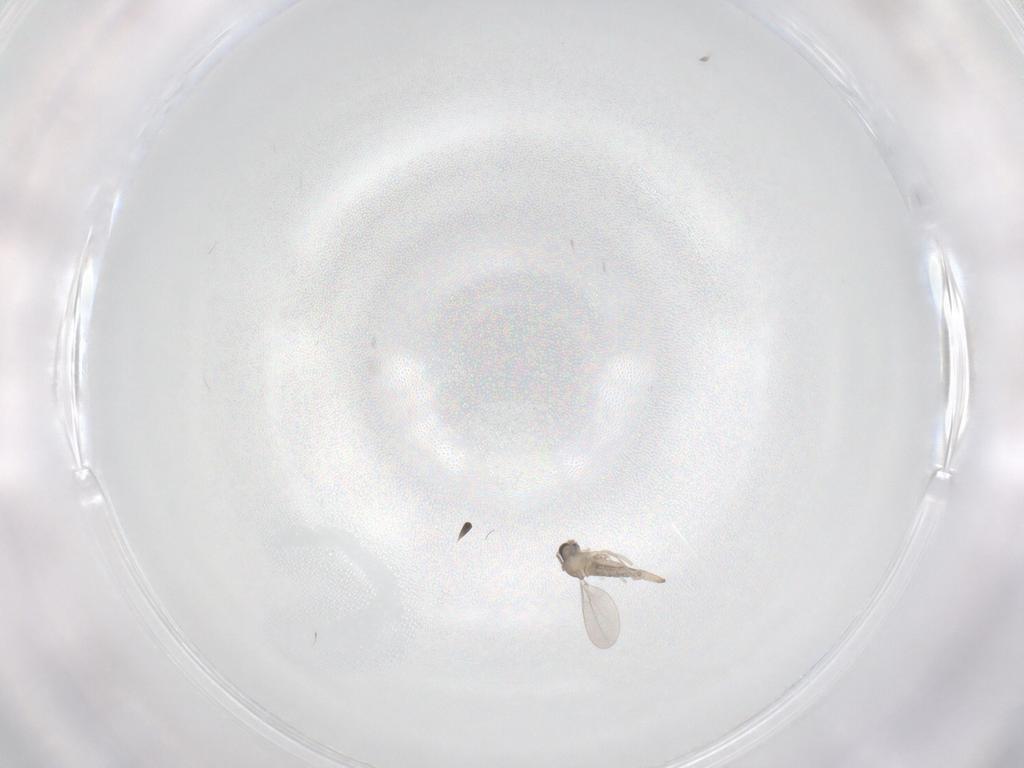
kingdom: Animalia
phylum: Arthropoda
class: Insecta
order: Diptera
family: Cecidomyiidae
